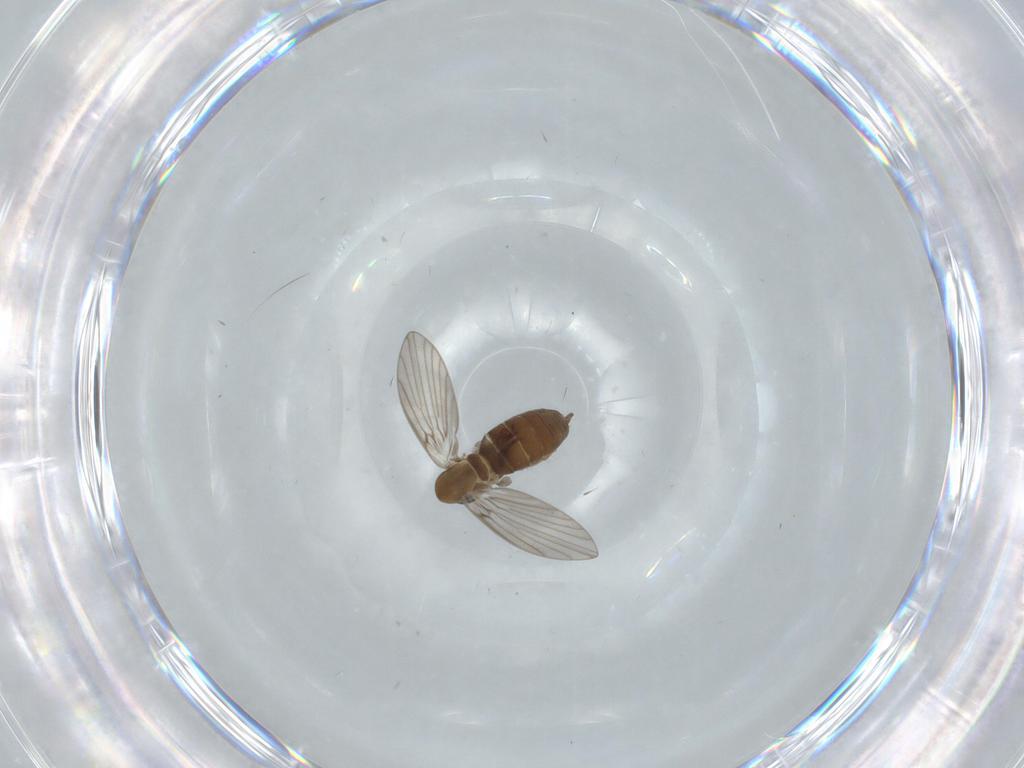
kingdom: Animalia
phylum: Arthropoda
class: Insecta
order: Diptera
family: Psychodidae
